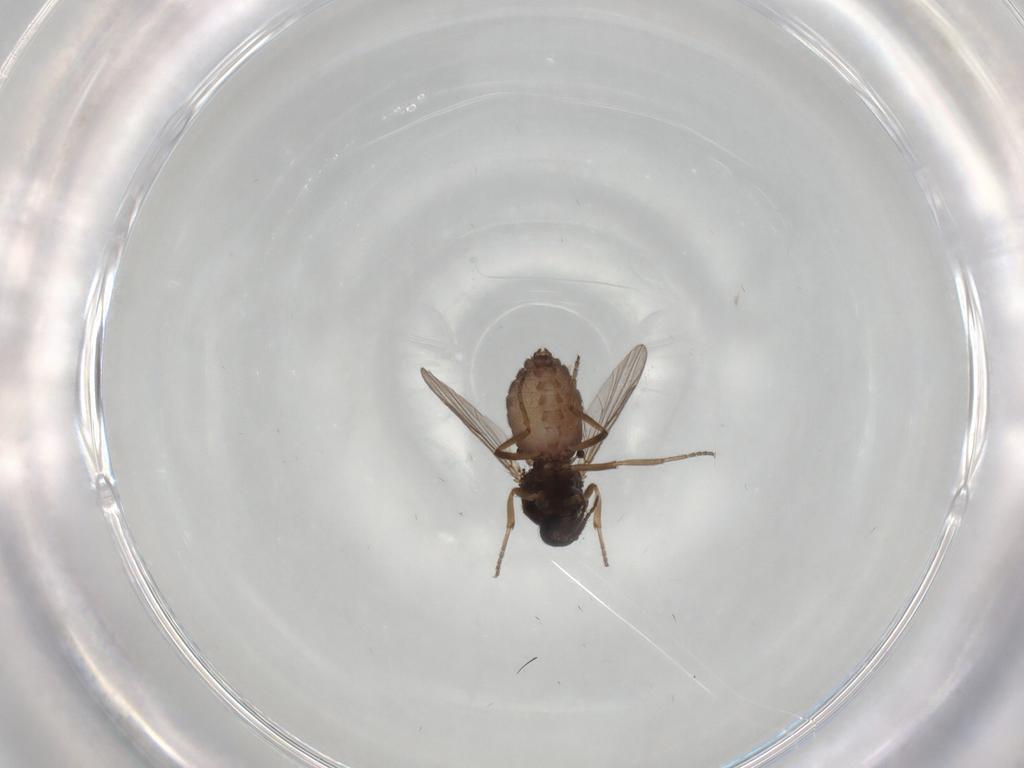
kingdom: Animalia
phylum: Arthropoda
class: Insecta
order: Diptera
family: Ceratopogonidae
